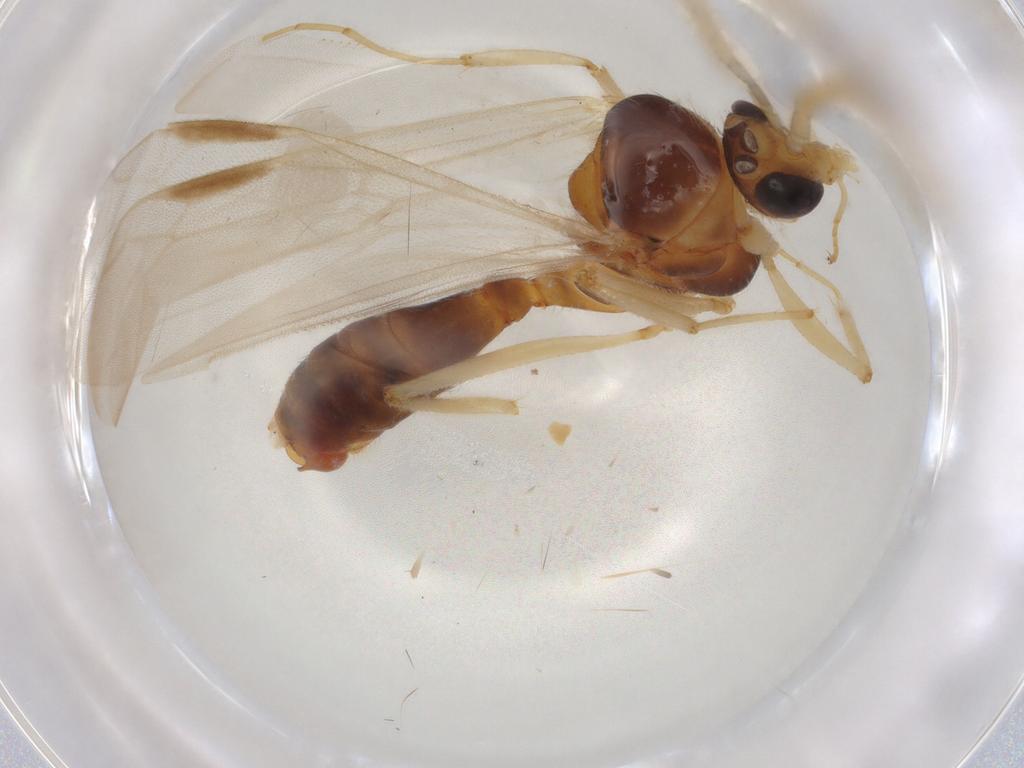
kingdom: Animalia
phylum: Arthropoda
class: Insecta
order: Hymenoptera
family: Formicidae
